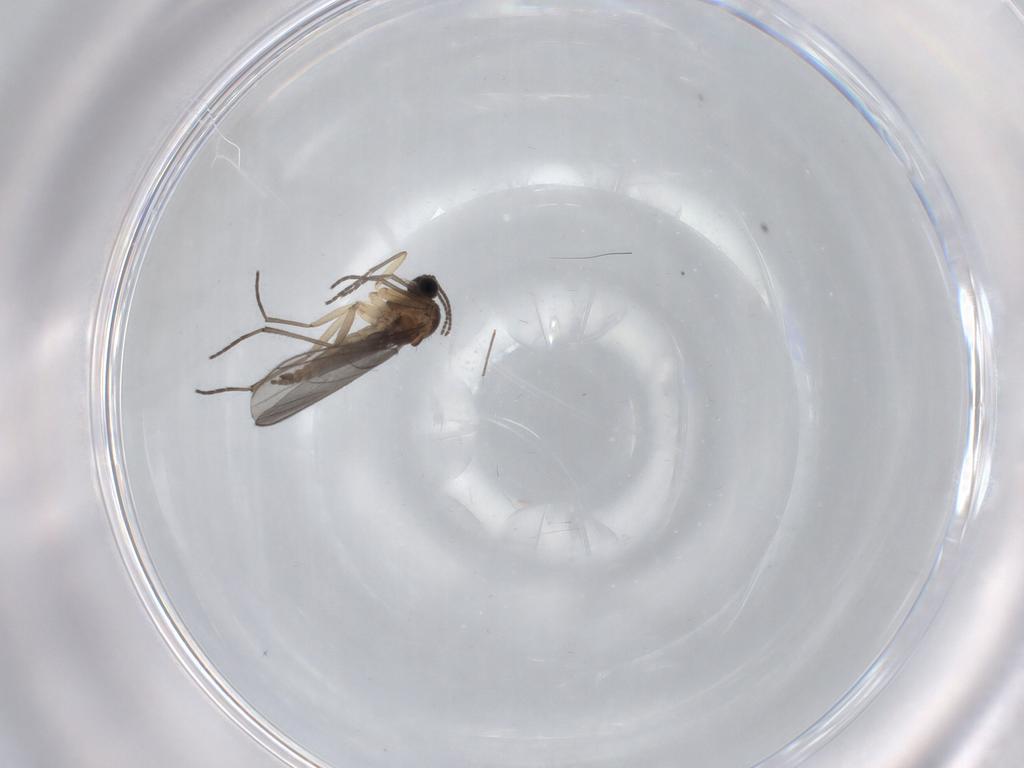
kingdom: Animalia
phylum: Arthropoda
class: Insecta
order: Diptera
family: Sciaridae
